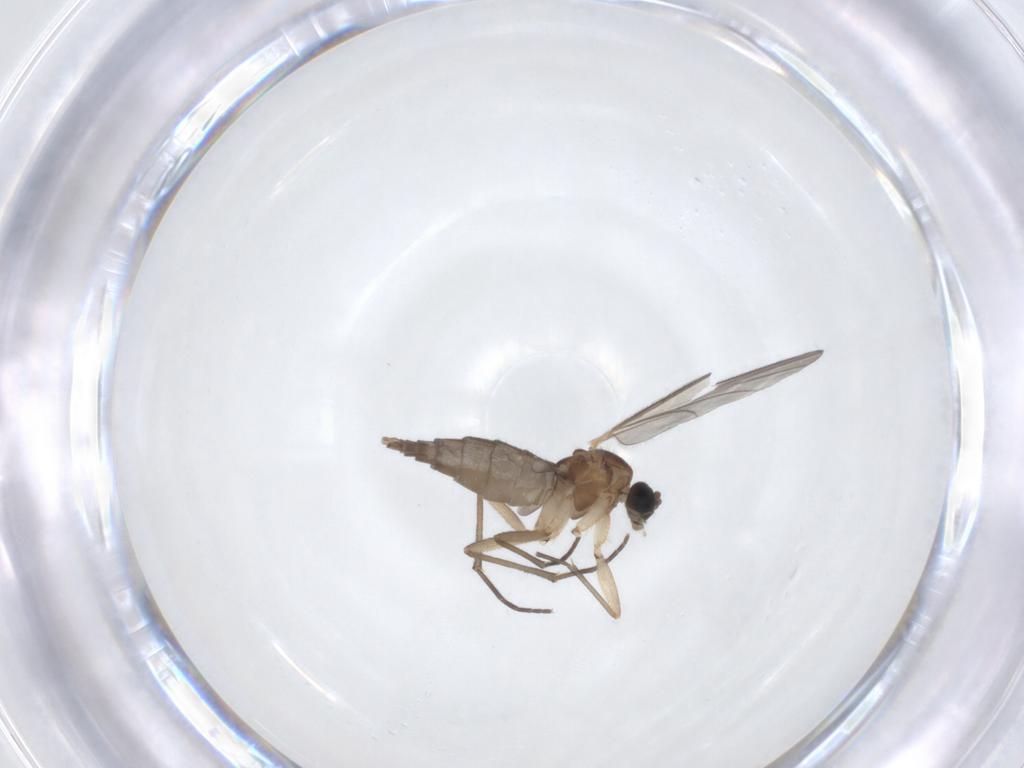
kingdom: Animalia
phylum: Arthropoda
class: Insecta
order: Diptera
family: Sciaridae
